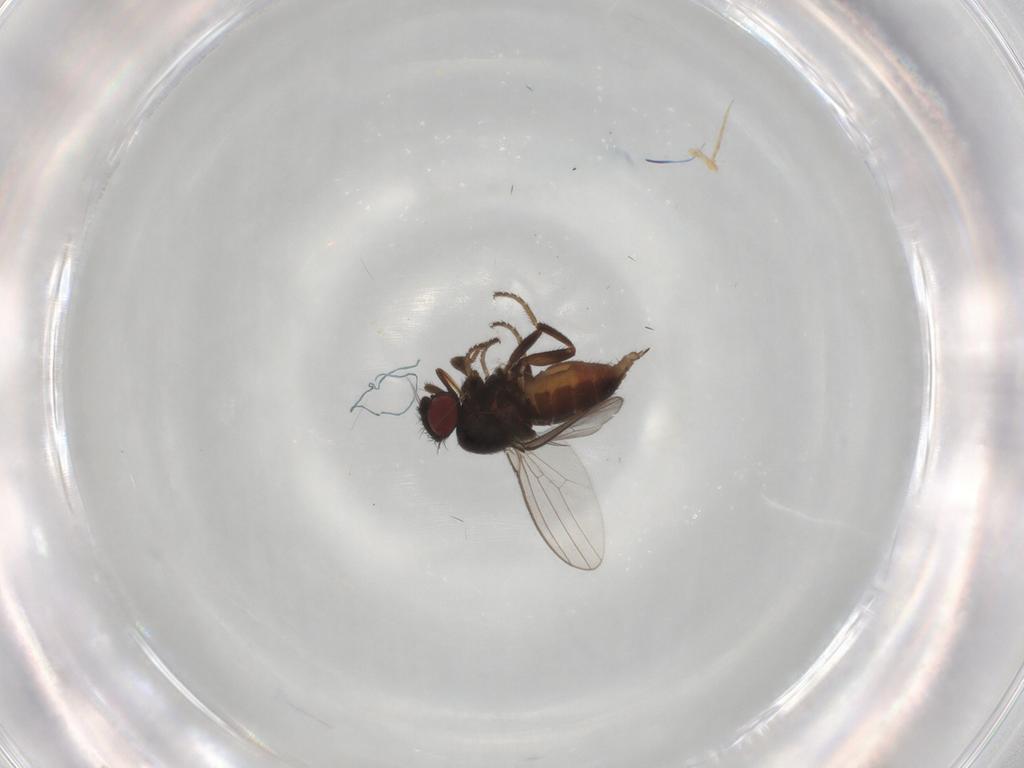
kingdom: Animalia
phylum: Arthropoda
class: Insecta
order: Diptera
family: Milichiidae
